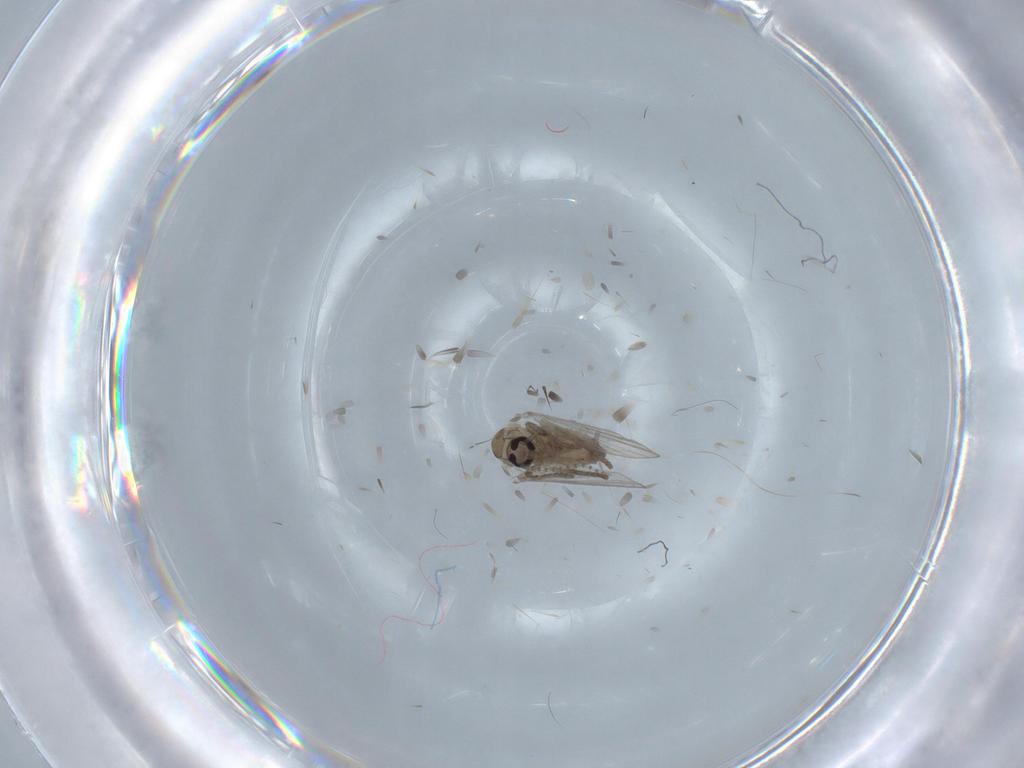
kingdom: Animalia
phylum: Arthropoda
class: Insecta
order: Diptera
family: Psychodidae
